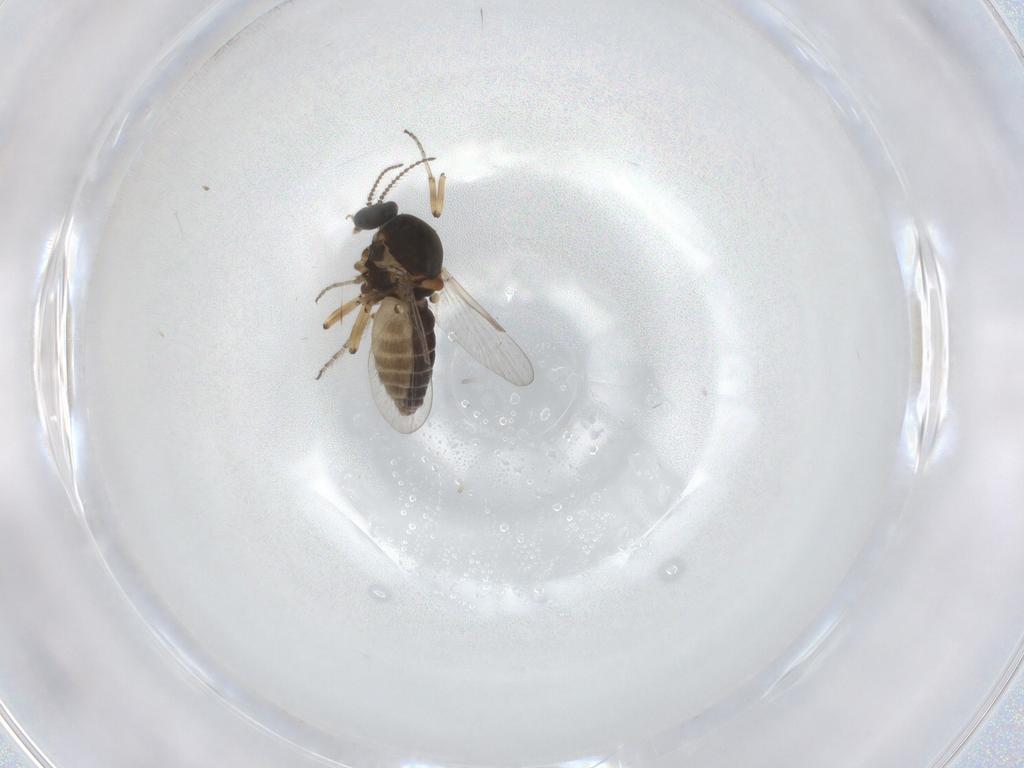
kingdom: Animalia
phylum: Arthropoda
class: Insecta
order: Diptera
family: Ceratopogonidae
